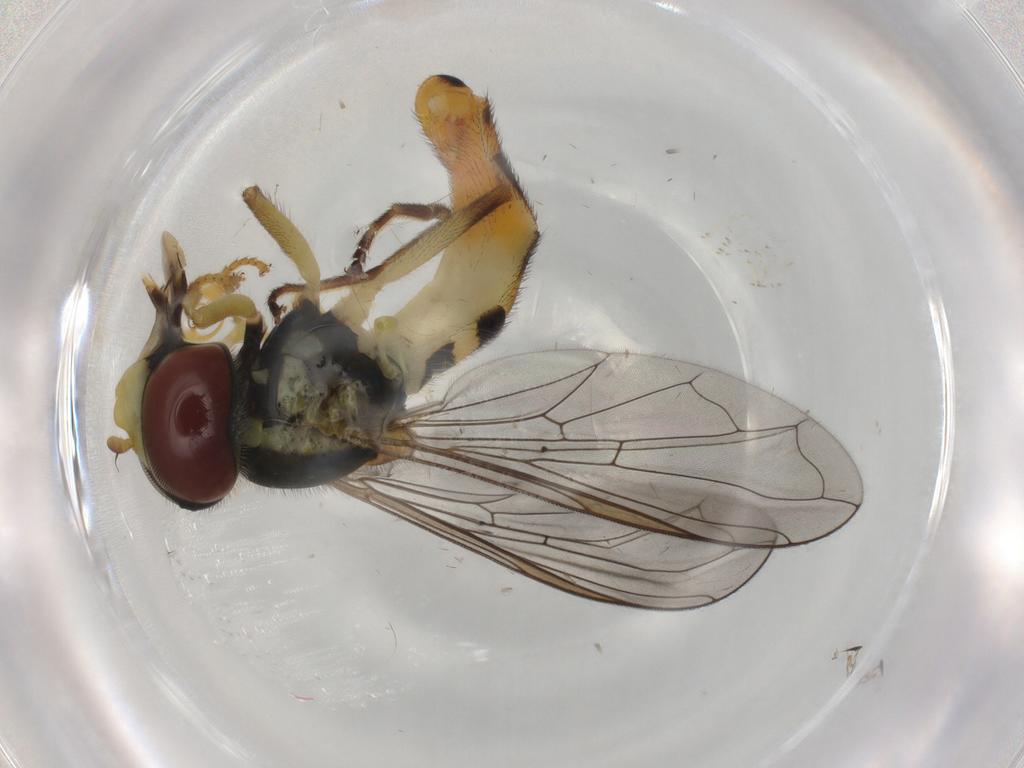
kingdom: Animalia
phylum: Arthropoda
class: Insecta
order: Diptera
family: Syrphidae
